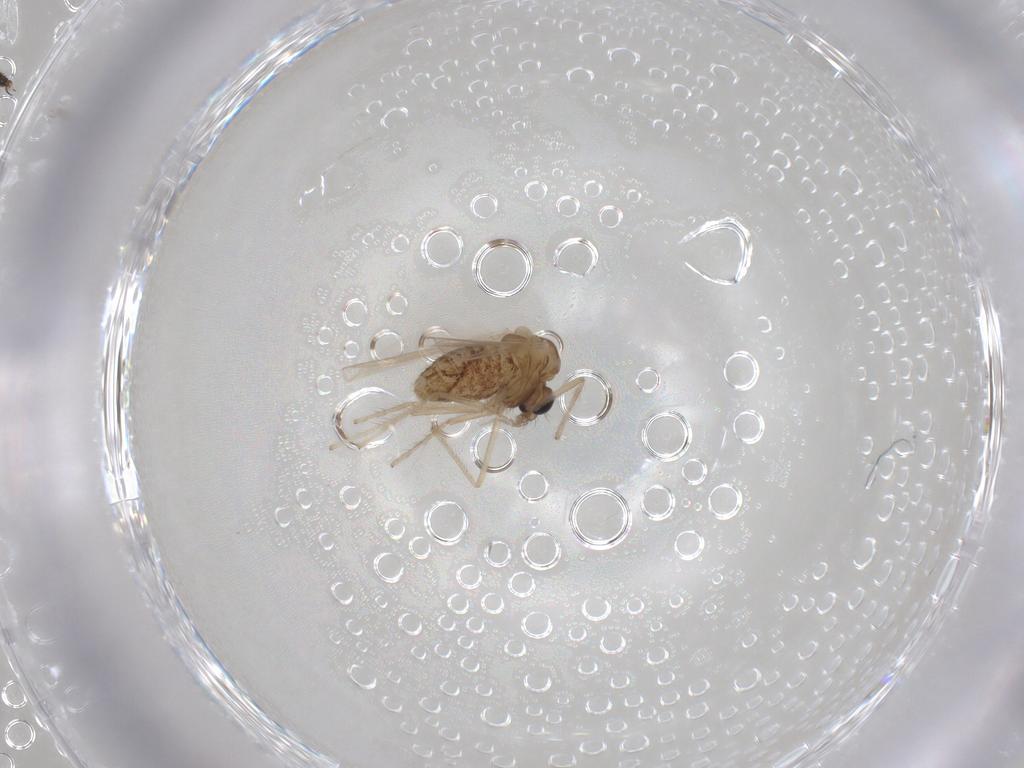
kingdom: Animalia
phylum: Arthropoda
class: Insecta
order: Diptera
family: Chironomidae
